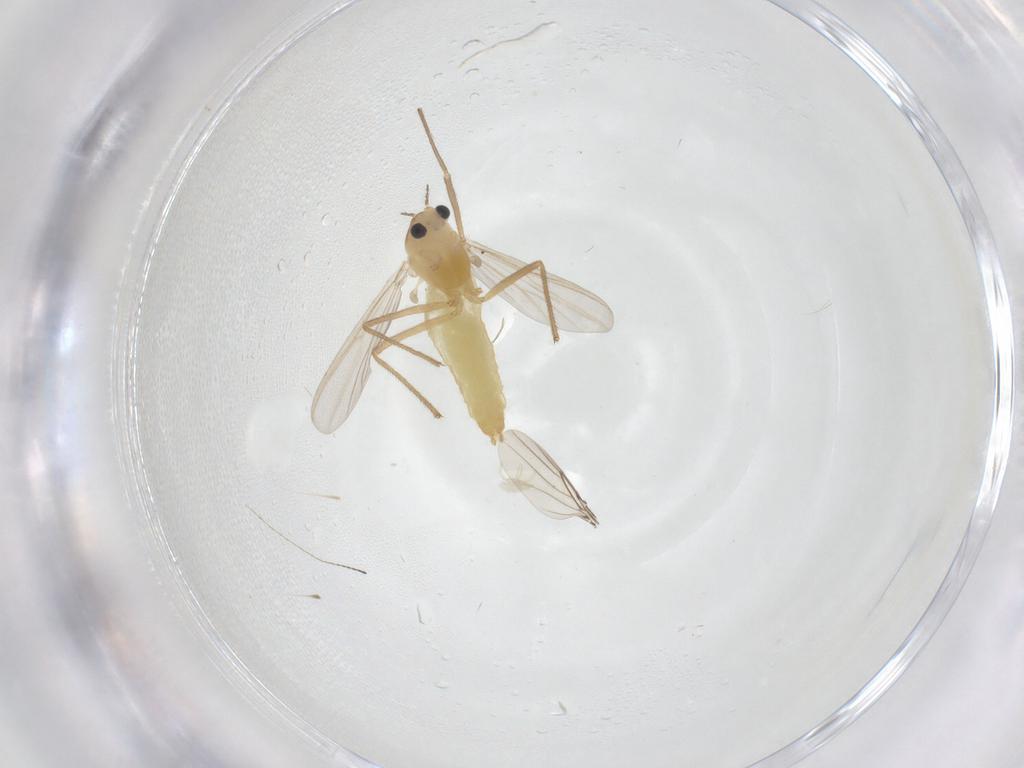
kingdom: Animalia
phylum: Arthropoda
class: Insecta
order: Diptera
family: Chironomidae
